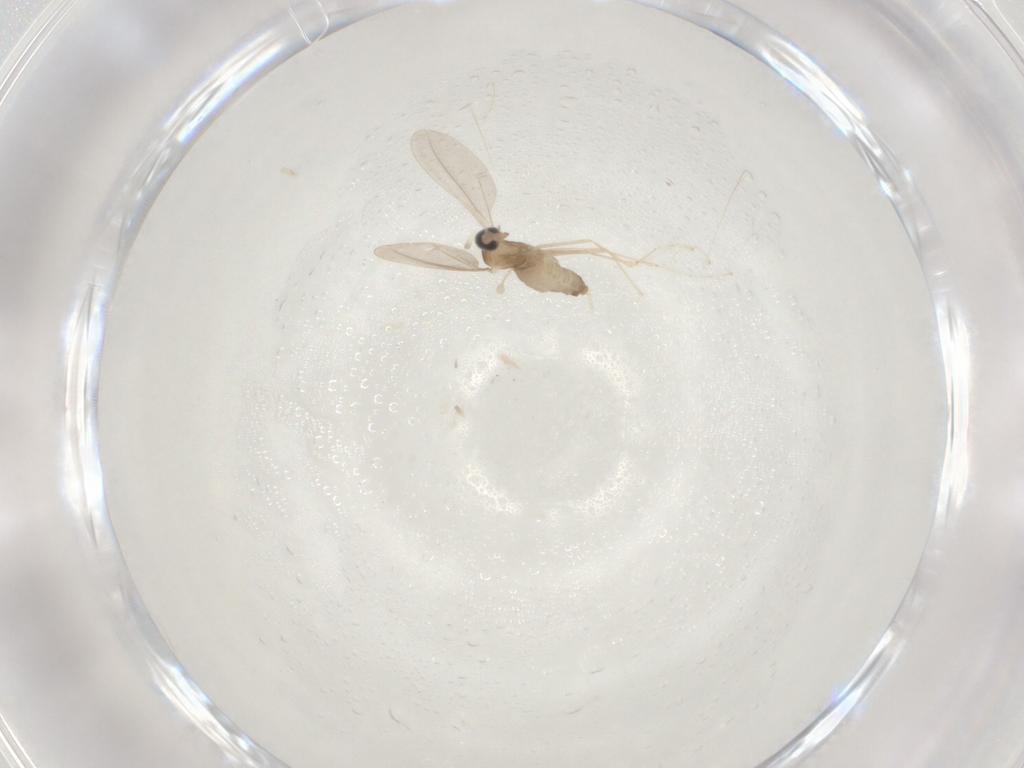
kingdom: Animalia
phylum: Arthropoda
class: Insecta
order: Diptera
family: Cecidomyiidae
